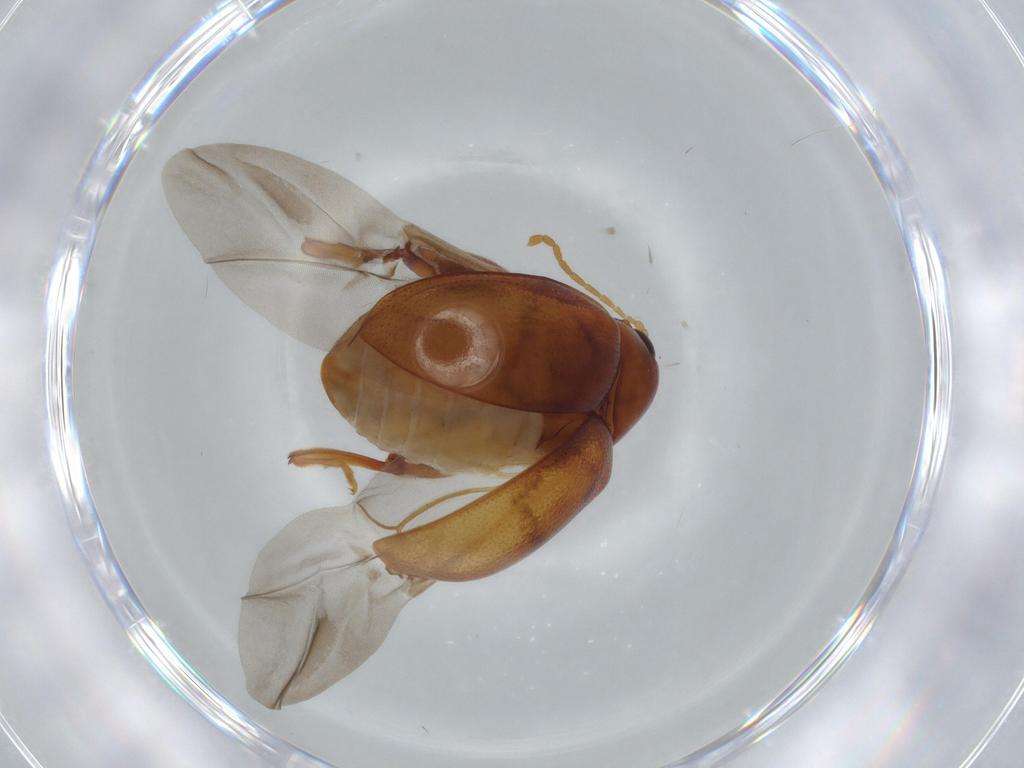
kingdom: Animalia
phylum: Arthropoda
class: Insecta
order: Coleoptera
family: Chrysomelidae
